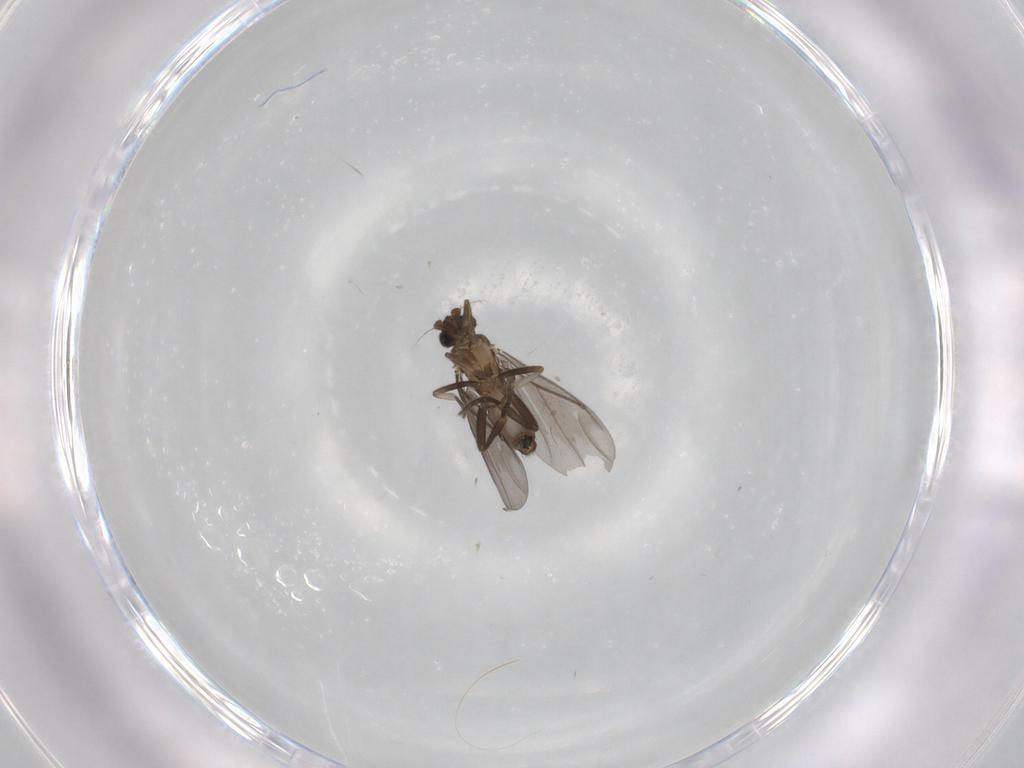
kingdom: Animalia
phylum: Arthropoda
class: Insecta
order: Diptera
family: Phoridae
